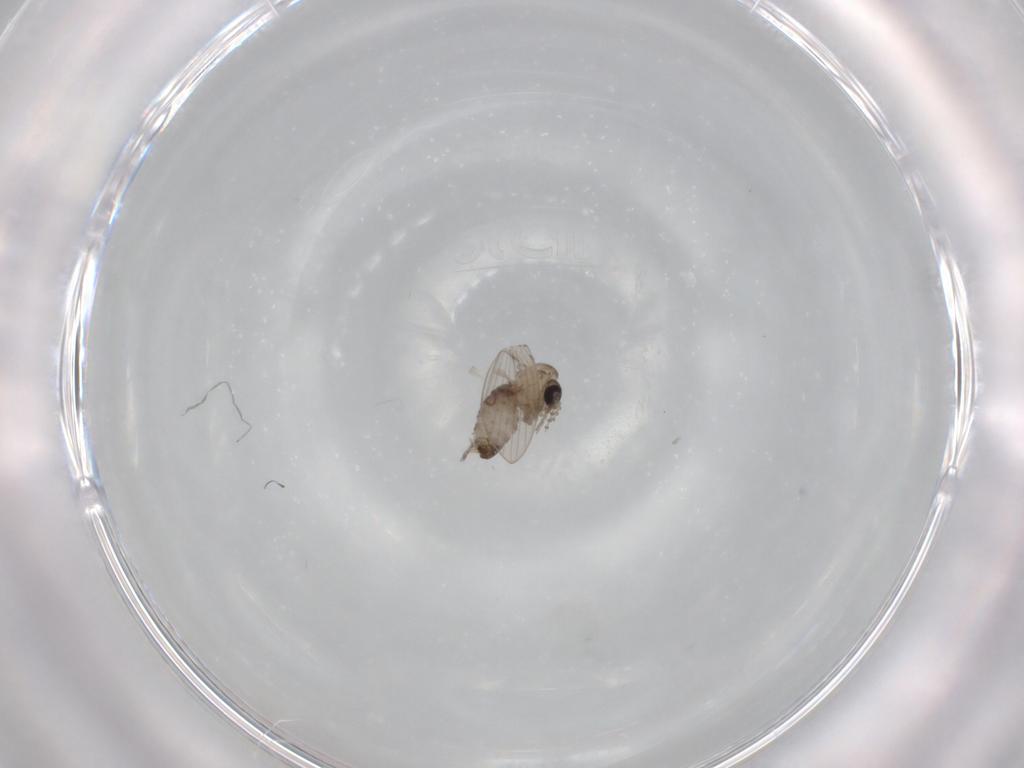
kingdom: Animalia
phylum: Arthropoda
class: Insecta
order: Diptera
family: Psychodidae
